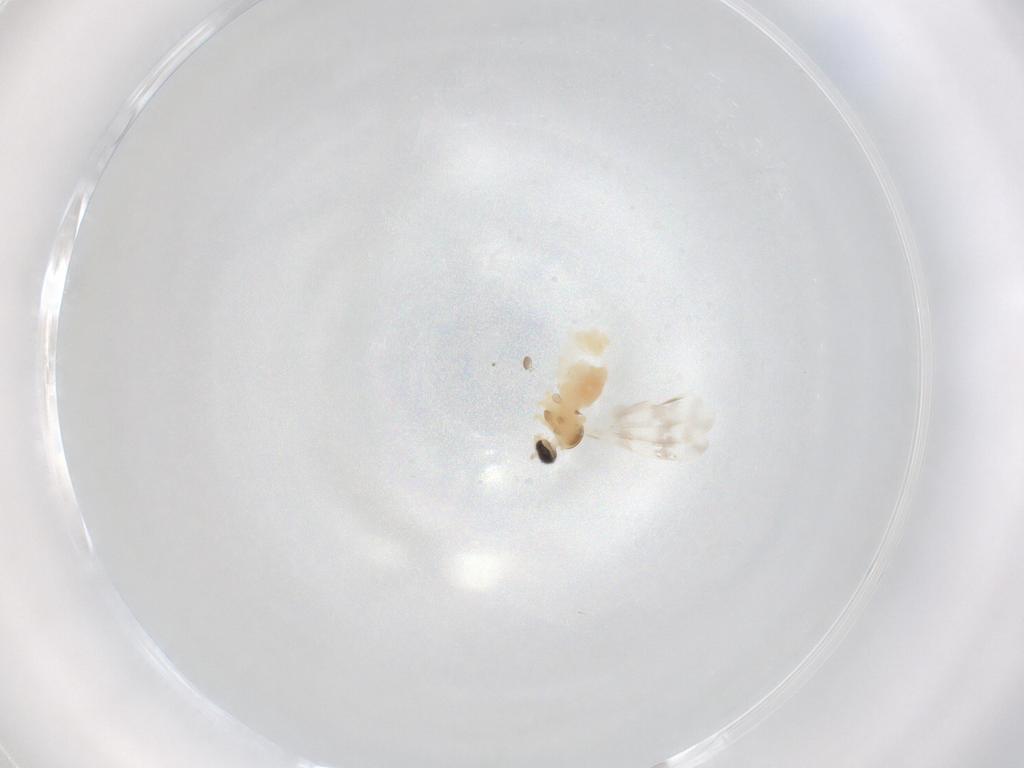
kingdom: Animalia
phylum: Arthropoda
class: Insecta
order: Diptera
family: Cecidomyiidae
